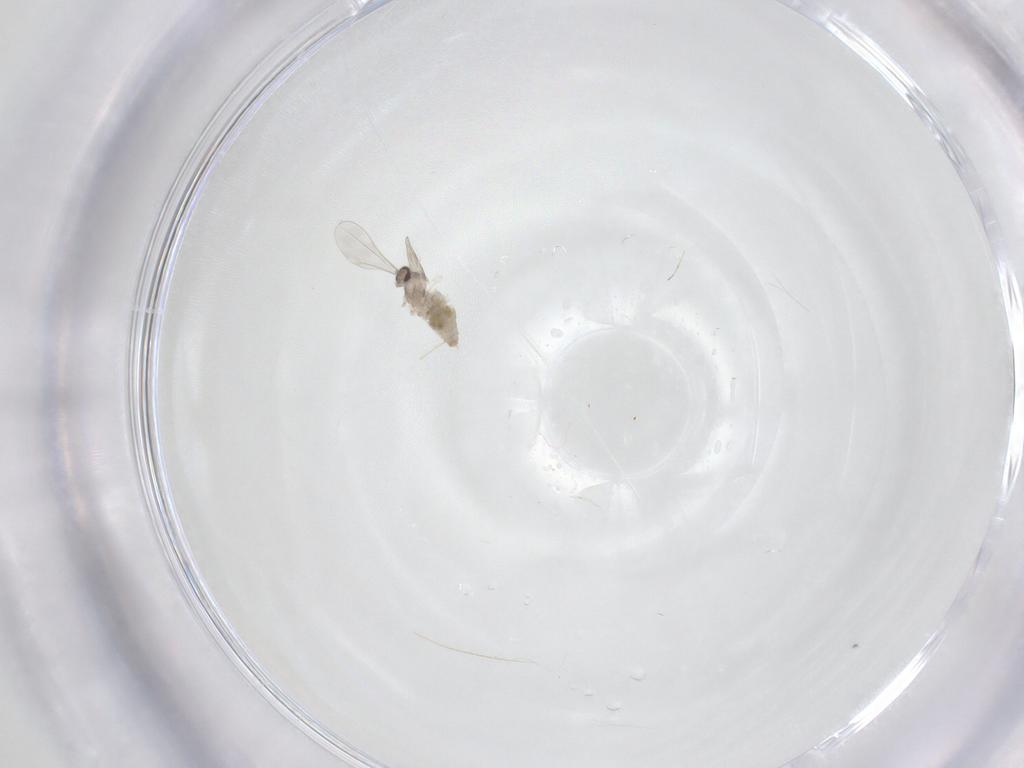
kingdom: Animalia
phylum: Arthropoda
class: Insecta
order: Diptera
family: Chironomidae
